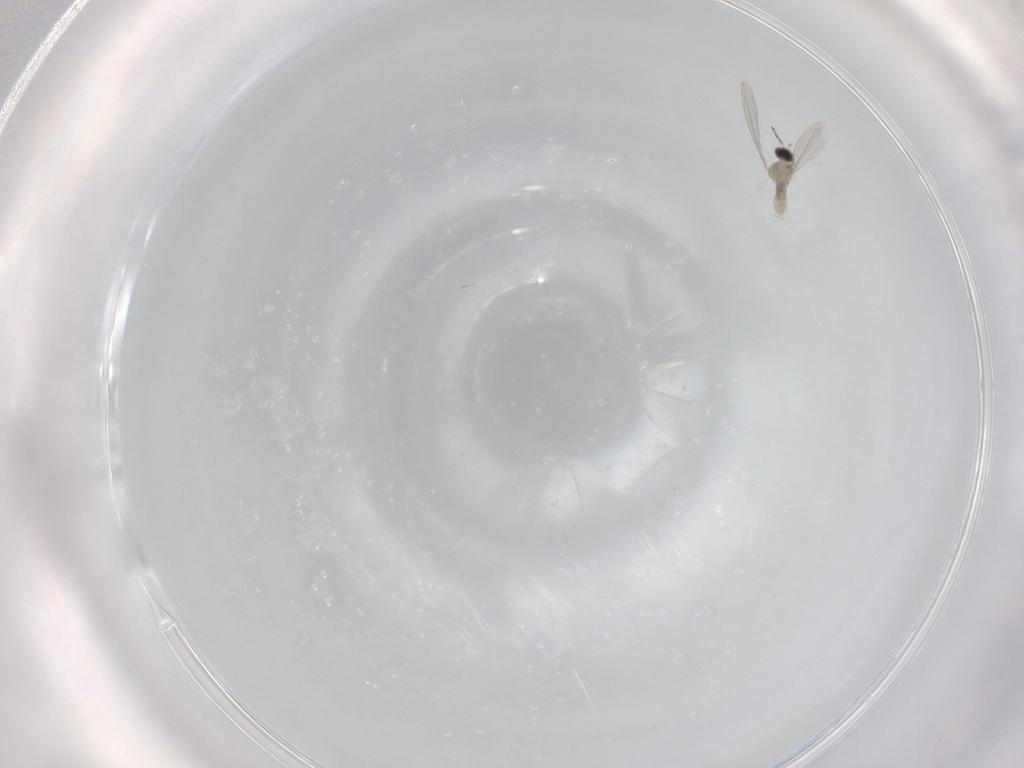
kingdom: Animalia
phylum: Arthropoda
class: Insecta
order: Diptera
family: Cecidomyiidae
